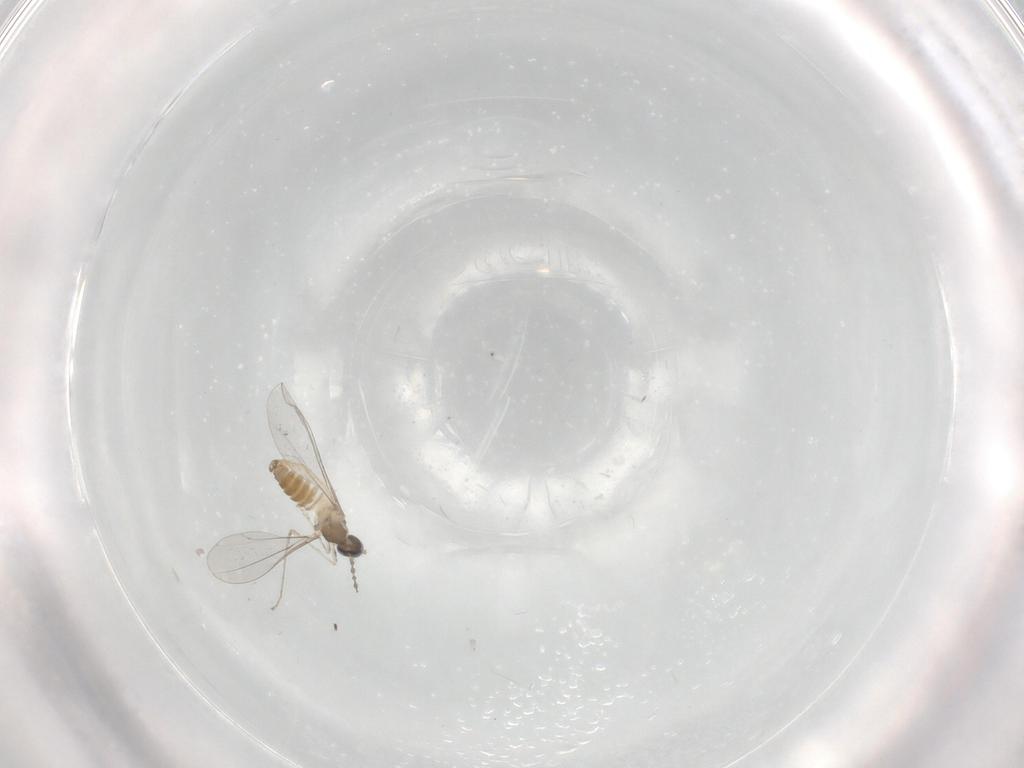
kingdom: Animalia
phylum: Arthropoda
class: Insecta
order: Diptera
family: Cecidomyiidae
